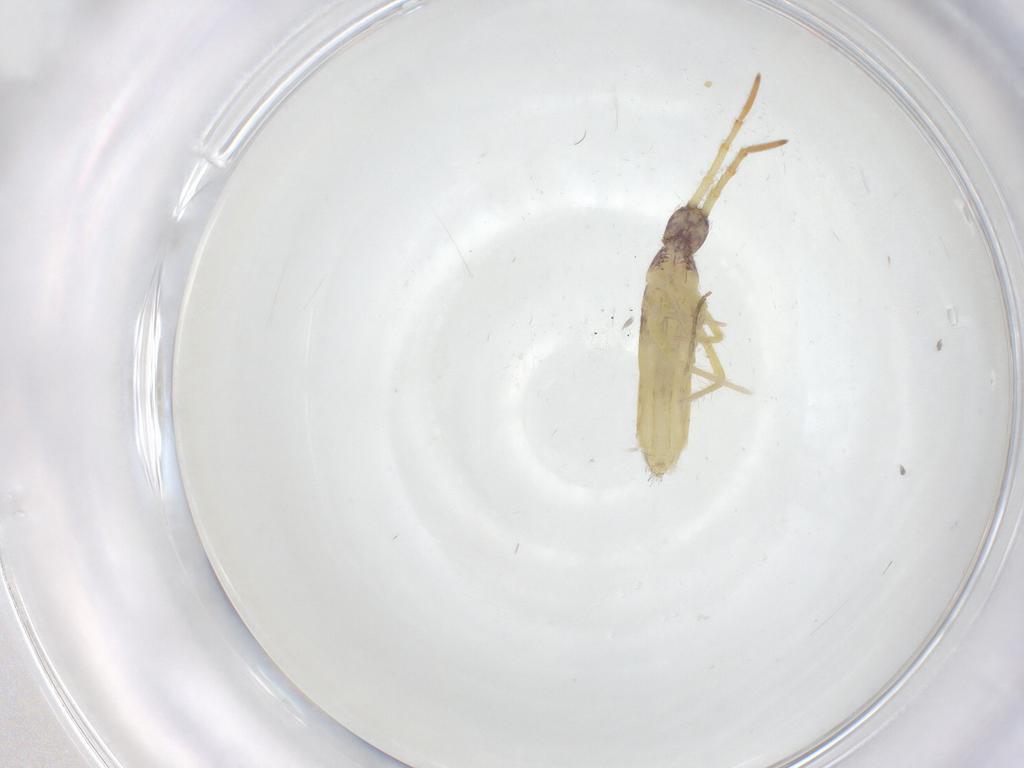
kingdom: Animalia
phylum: Arthropoda
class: Collembola
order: Entomobryomorpha
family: Entomobryidae
